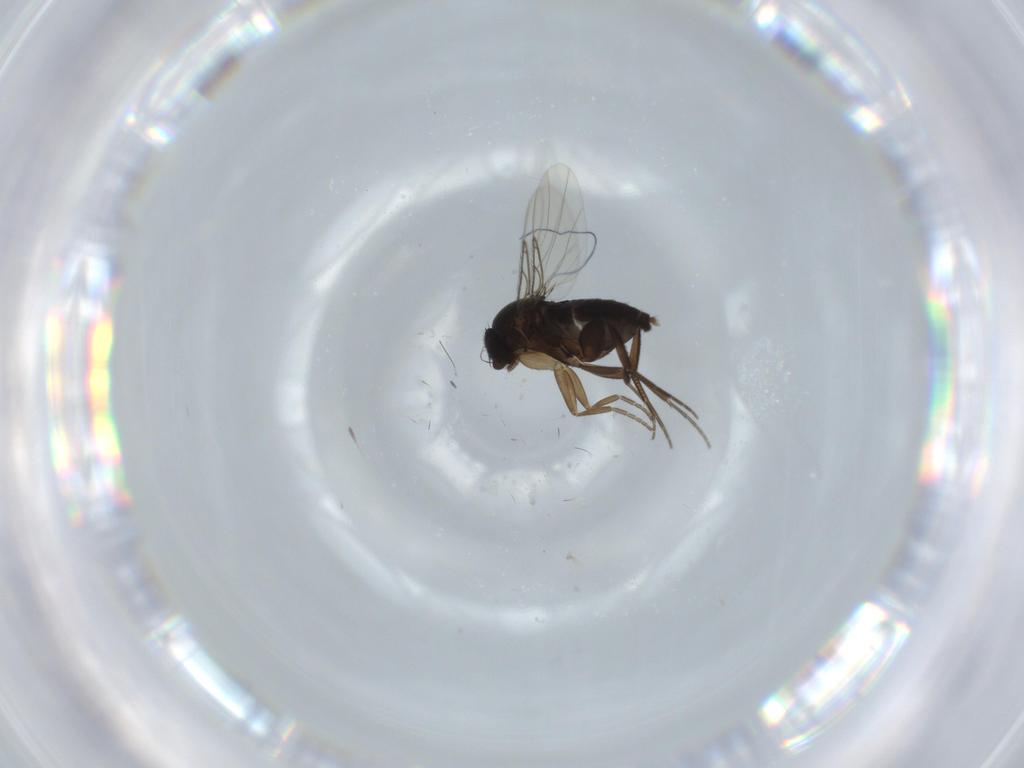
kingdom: Animalia
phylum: Arthropoda
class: Insecta
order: Diptera
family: Phoridae
